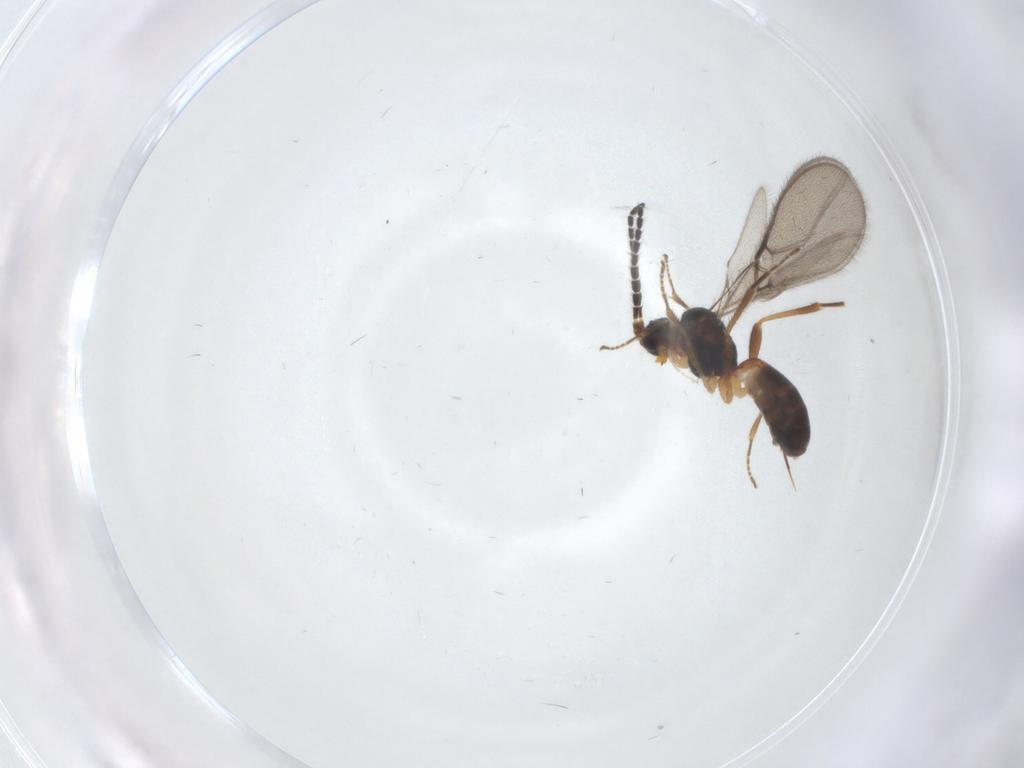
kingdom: Animalia
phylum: Arthropoda
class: Insecta
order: Hymenoptera
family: Braconidae
